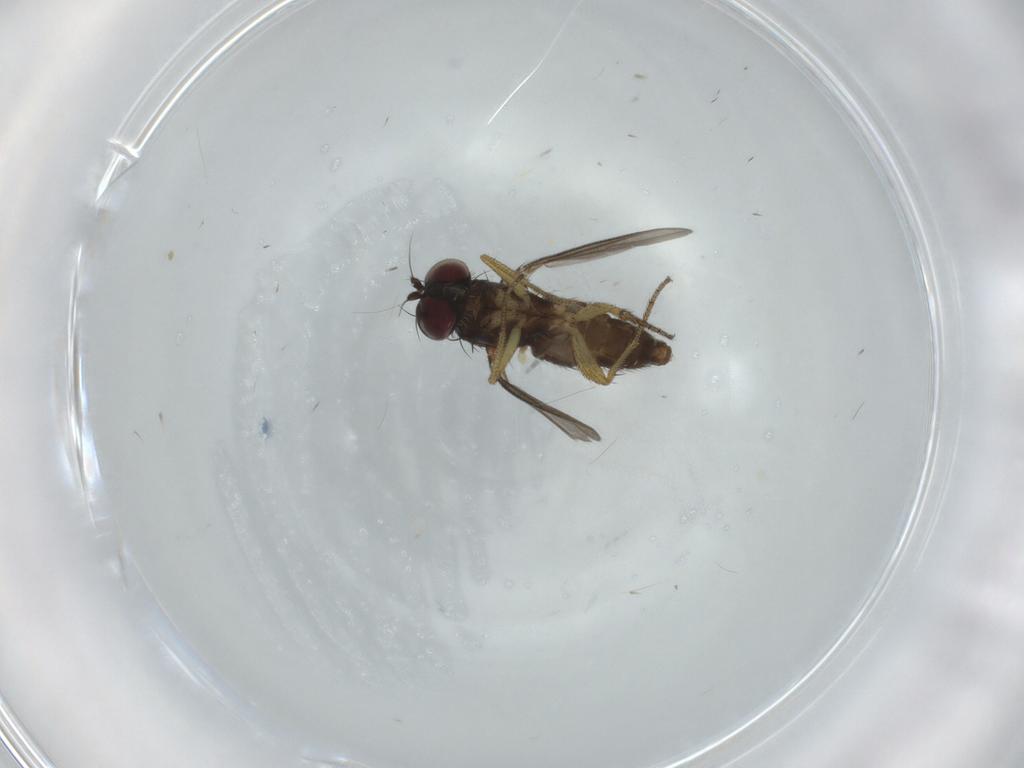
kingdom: Animalia
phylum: Arthropoda
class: Insecta
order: Diptera
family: Dolichopodidae
